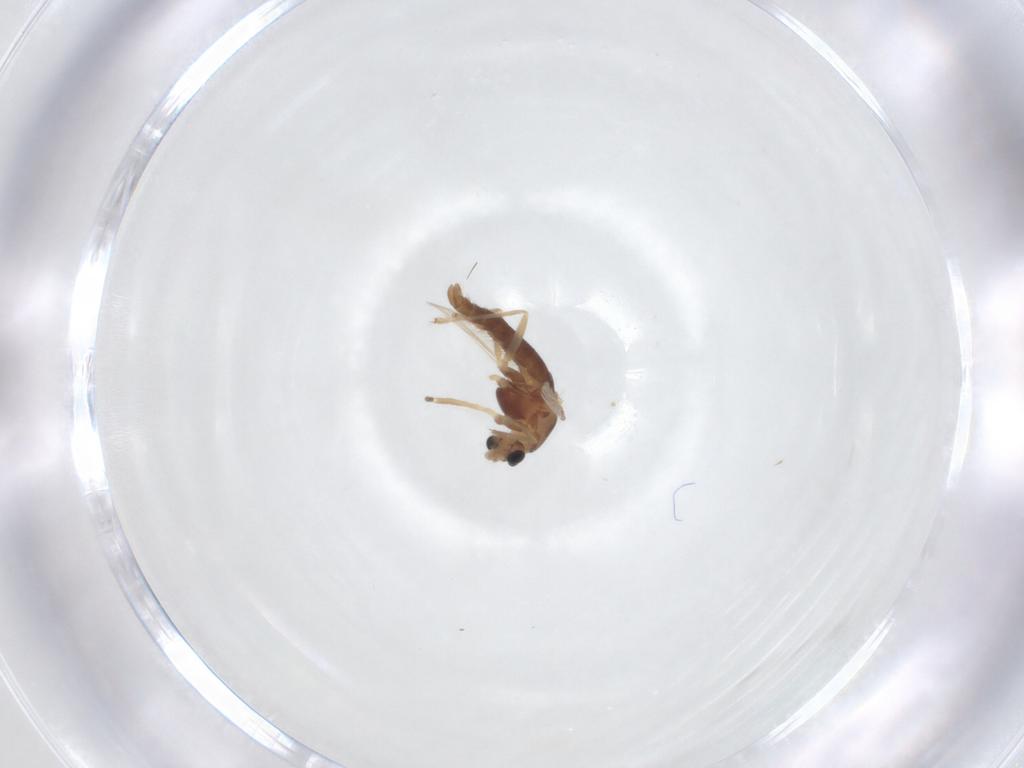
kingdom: Animalia
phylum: Arthropoda
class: Insecta
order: Diptera
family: Chironomidae
